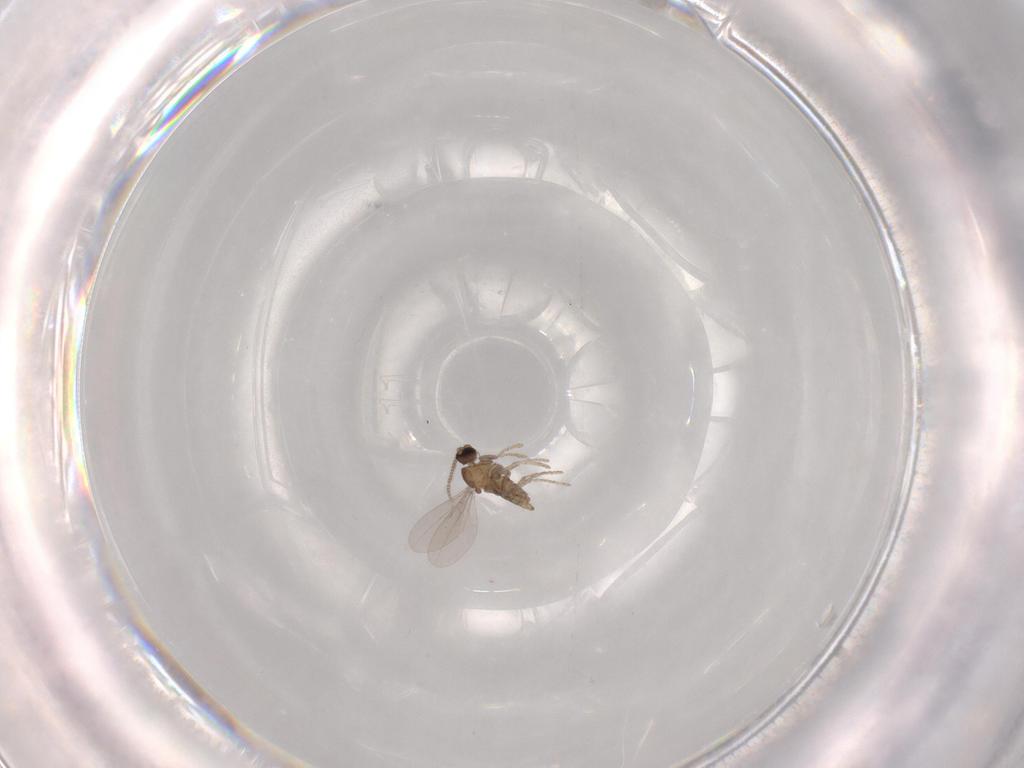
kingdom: Animalia
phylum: Arthropoda
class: Insecta
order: Diptera
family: Cecidomyiidae
